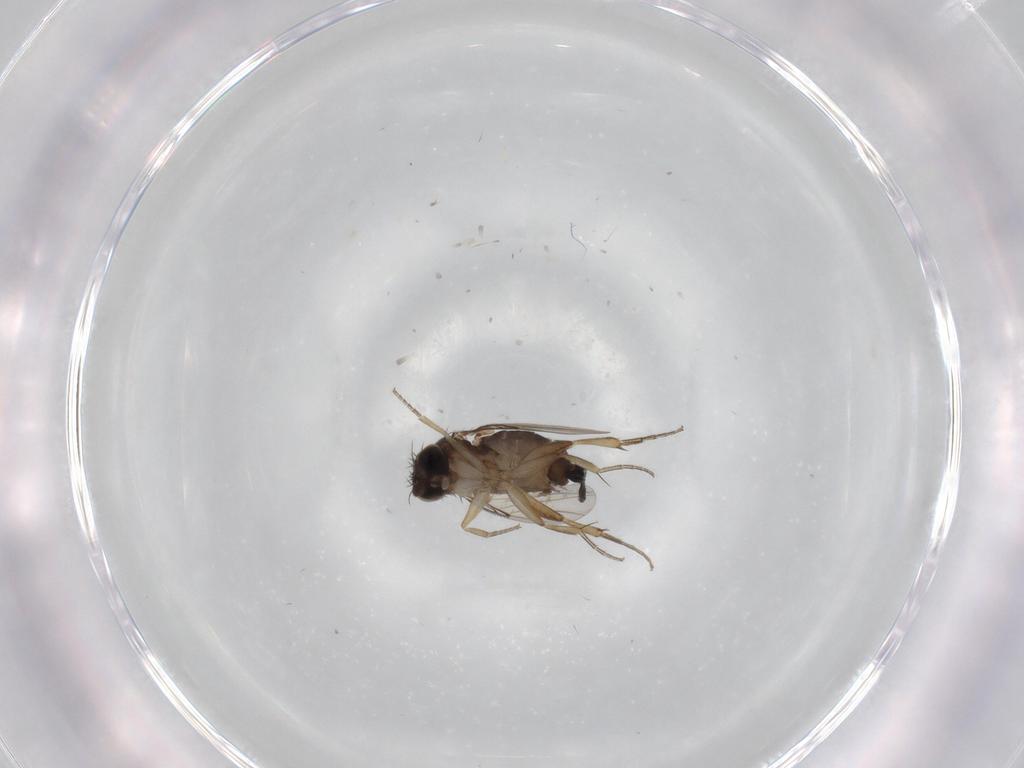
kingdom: Animalia
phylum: Arthropoda
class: Insecta
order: Diptera
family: Phoridae
